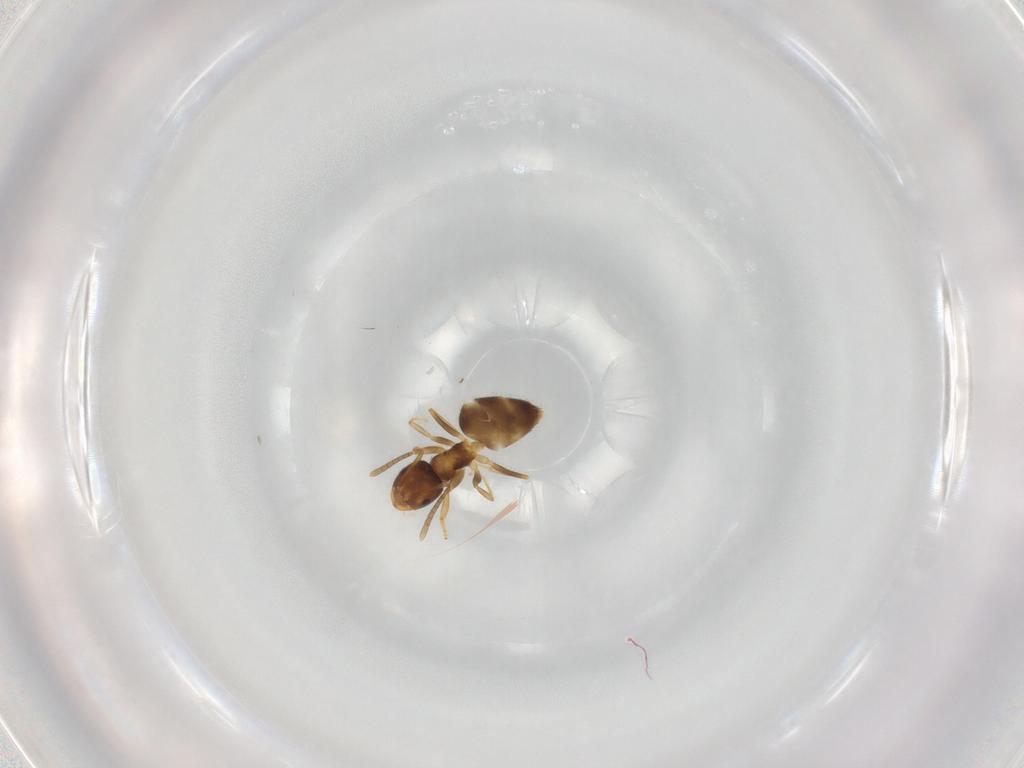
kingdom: Animalia
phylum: Arthropoda
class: Insecta
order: Hymenoptera
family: Formicidae
